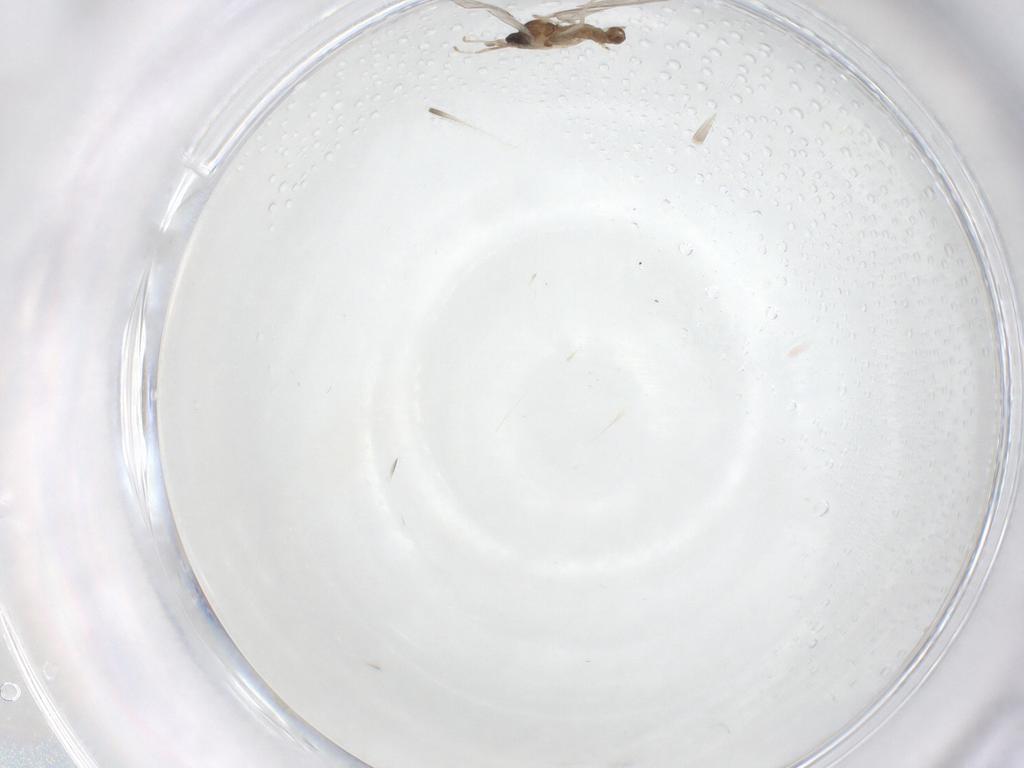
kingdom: Animalia
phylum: Arthropoda
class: Insecta
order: Diptera
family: Cecidomyiidae
